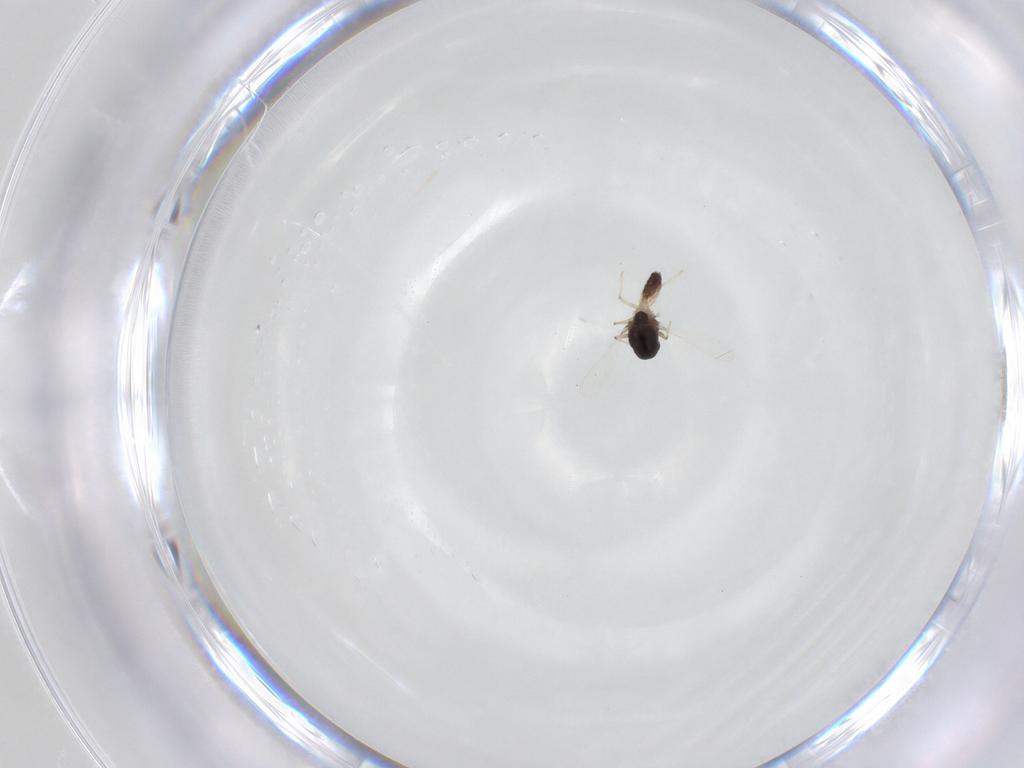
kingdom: Animalia
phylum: Arthropoda
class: Insecta
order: Diptera
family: Chironomidae
